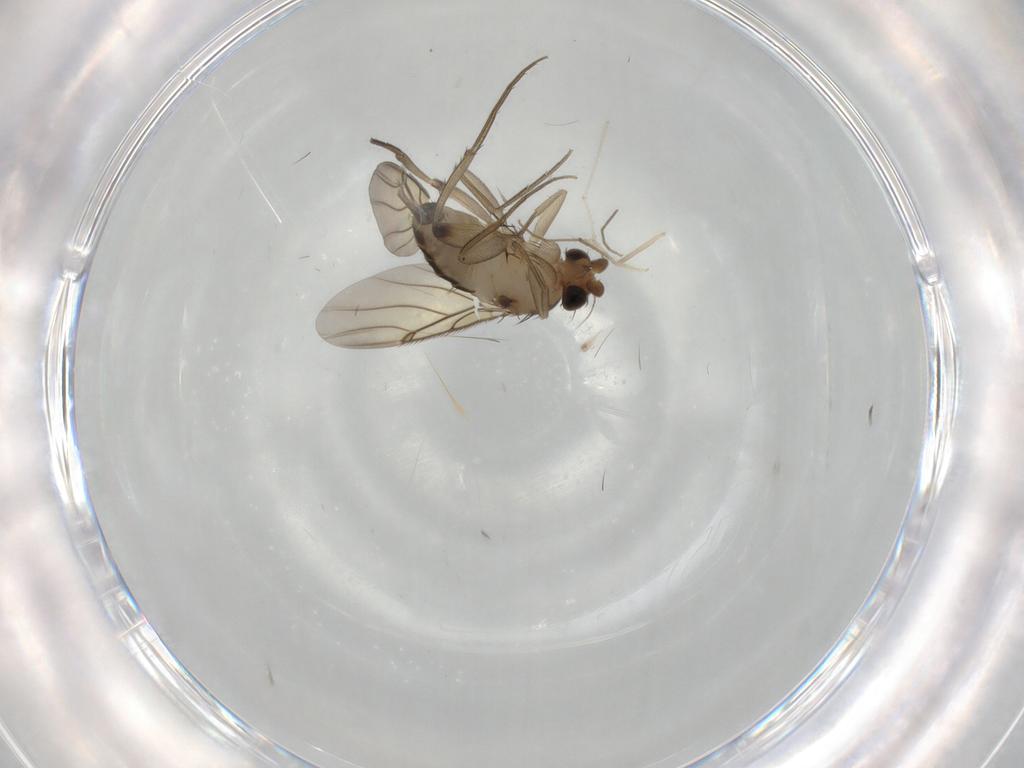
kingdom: Animalia
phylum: Arthropoda
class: Insecta
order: Diptera
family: Phoridae
